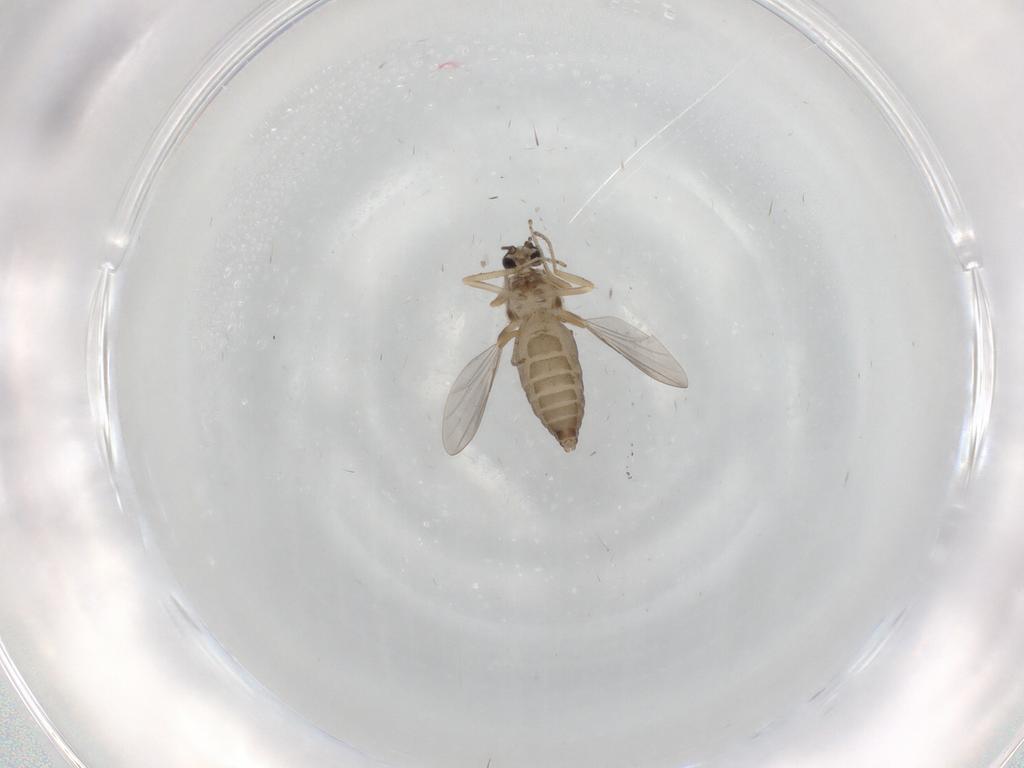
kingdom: Animalia
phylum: Arthropoda
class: Insecta
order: Diptera
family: Ceratopogonidae
